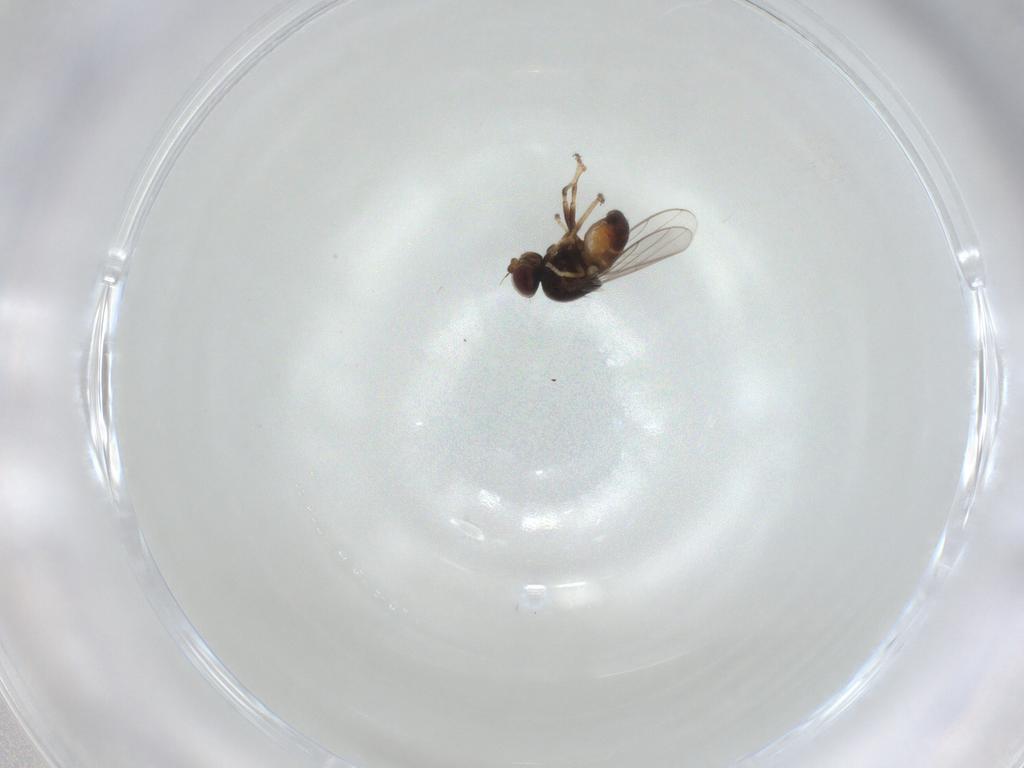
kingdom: Animalia
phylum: Arthropoda
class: Insecta
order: Diptera
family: Chloropidae
